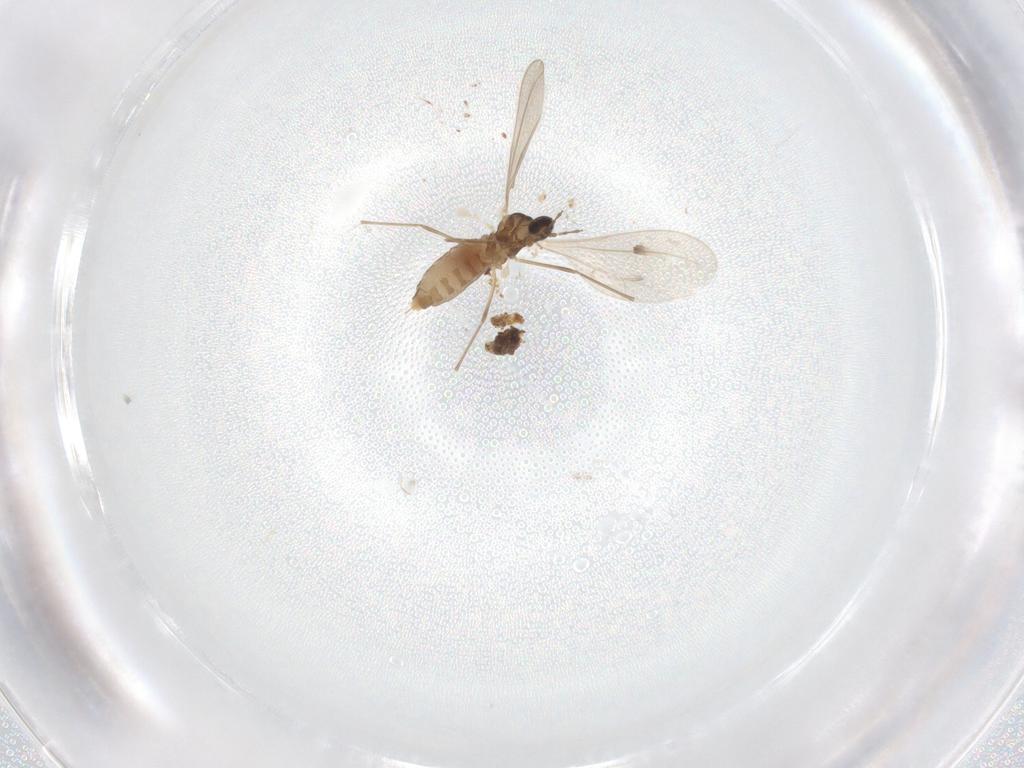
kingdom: Animalia
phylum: Arthropoda
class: Insecta
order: Diptera
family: Cecidomyiidae
